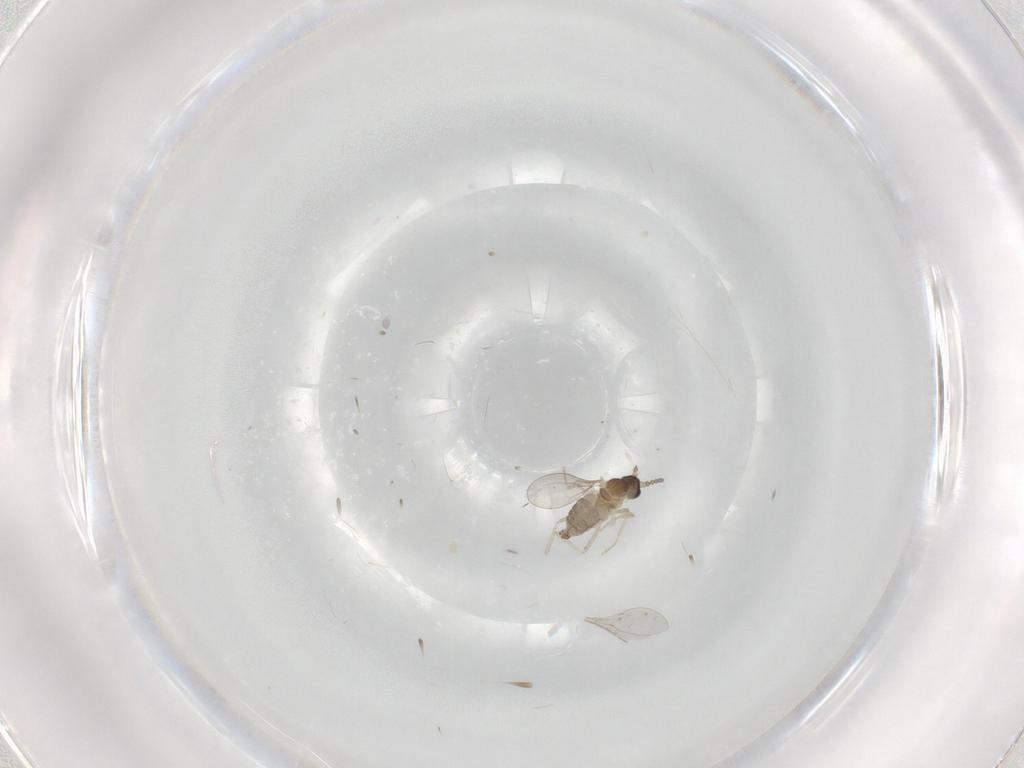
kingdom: Animalia
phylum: Arthropoda
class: Insecta
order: Diptera
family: Cecidomyiidae
